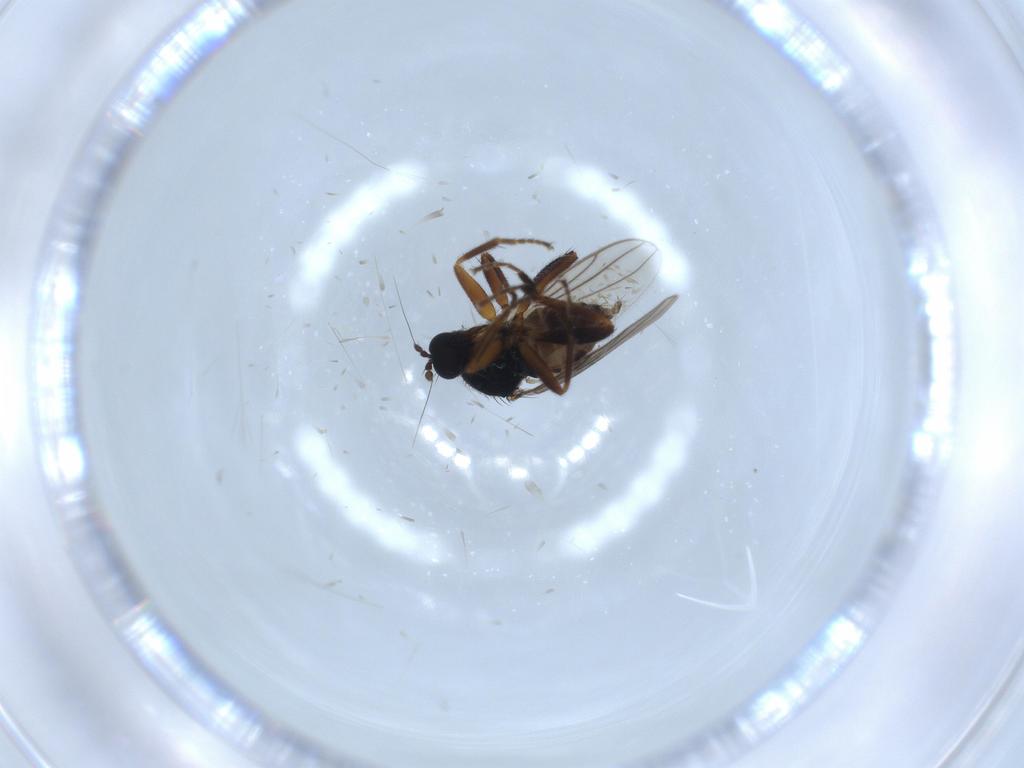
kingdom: Animalia
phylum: Arthropoda
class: Insecta
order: Diptera
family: Hybotidae
